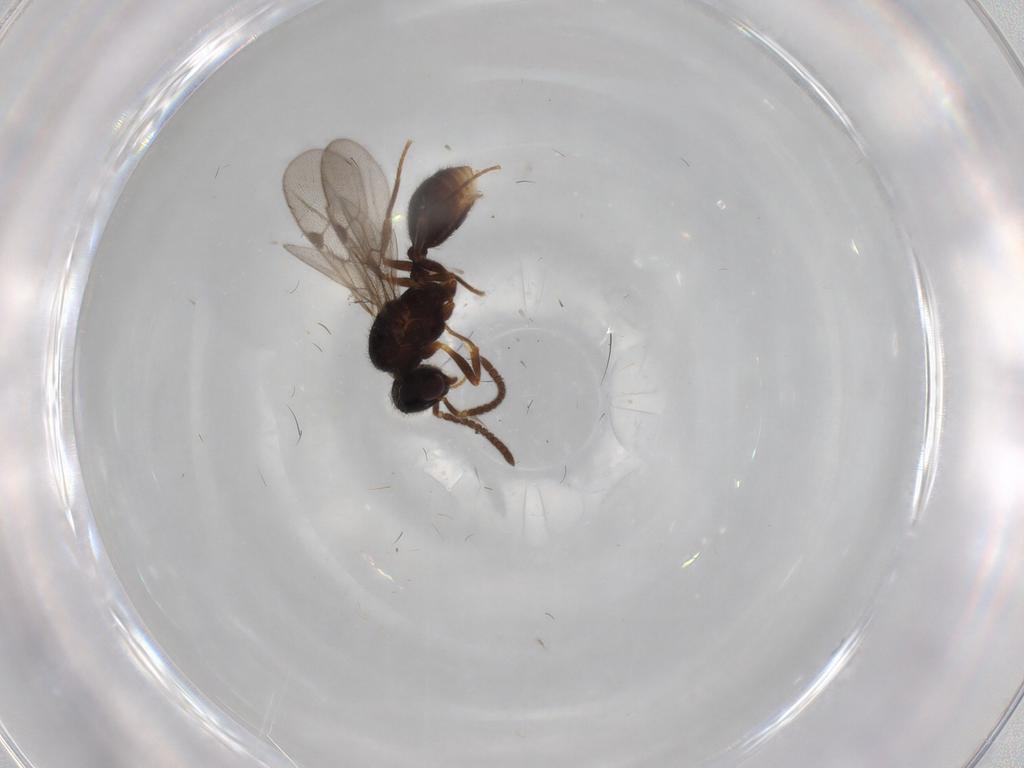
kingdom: Animalia
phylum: Arthropoda
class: Insecta
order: Hymenoptera
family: Formicidae
